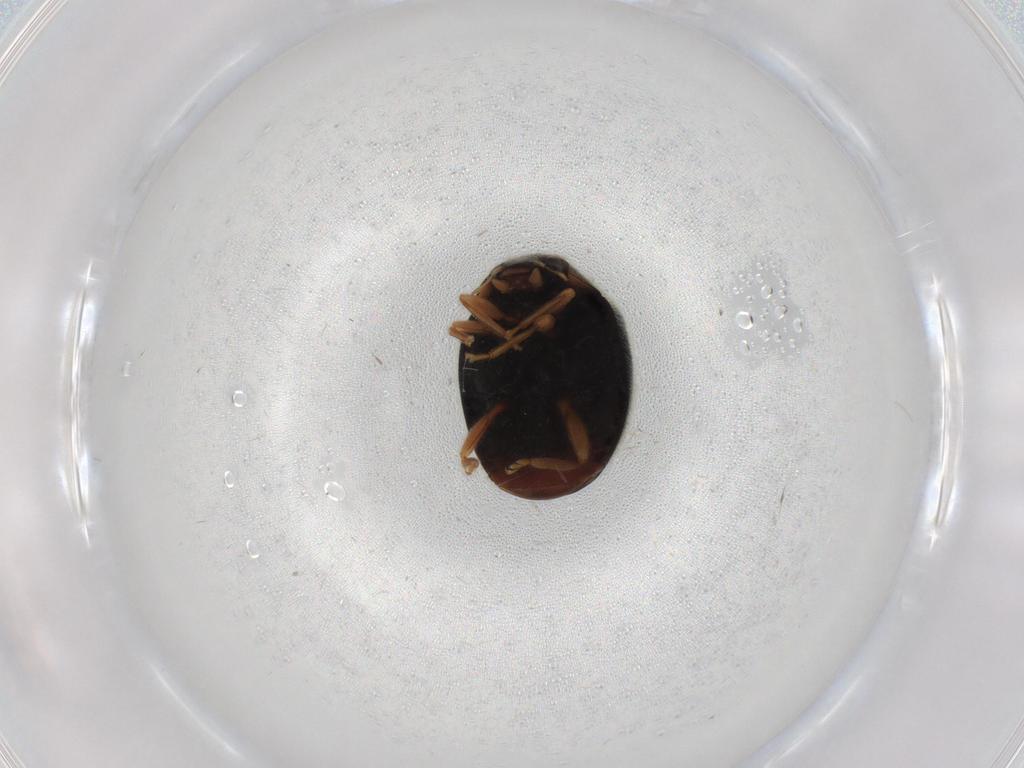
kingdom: Animalia
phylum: Arthropoda
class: Insecta
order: Coleoptera
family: Coccinellidae
